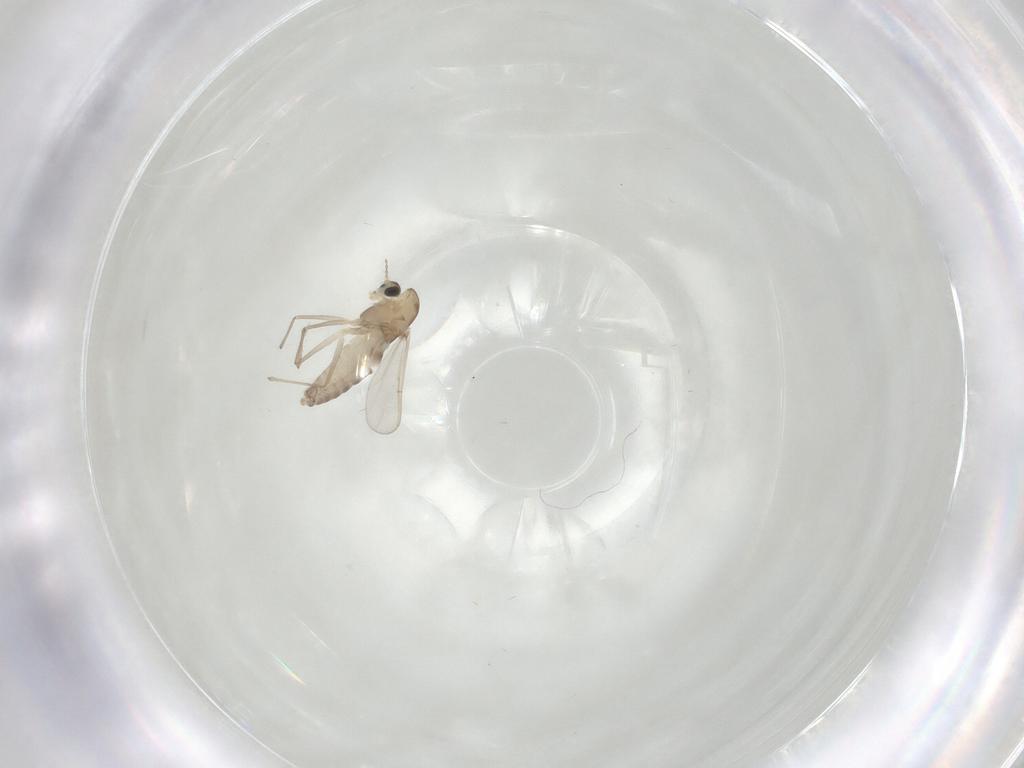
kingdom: Animalia
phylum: Arthropoda
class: Insecta
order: Diptera
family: Chironomidae
